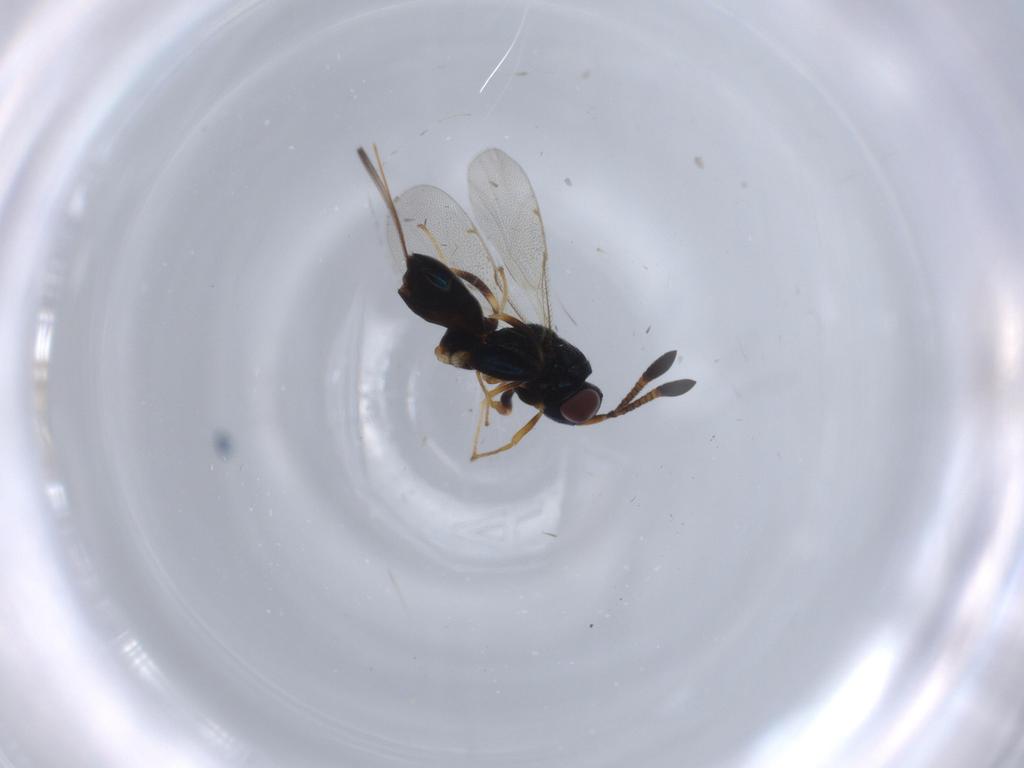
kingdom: Animalia
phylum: Arthropoda
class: Insecta
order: Hymenoptera
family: Torymidae
